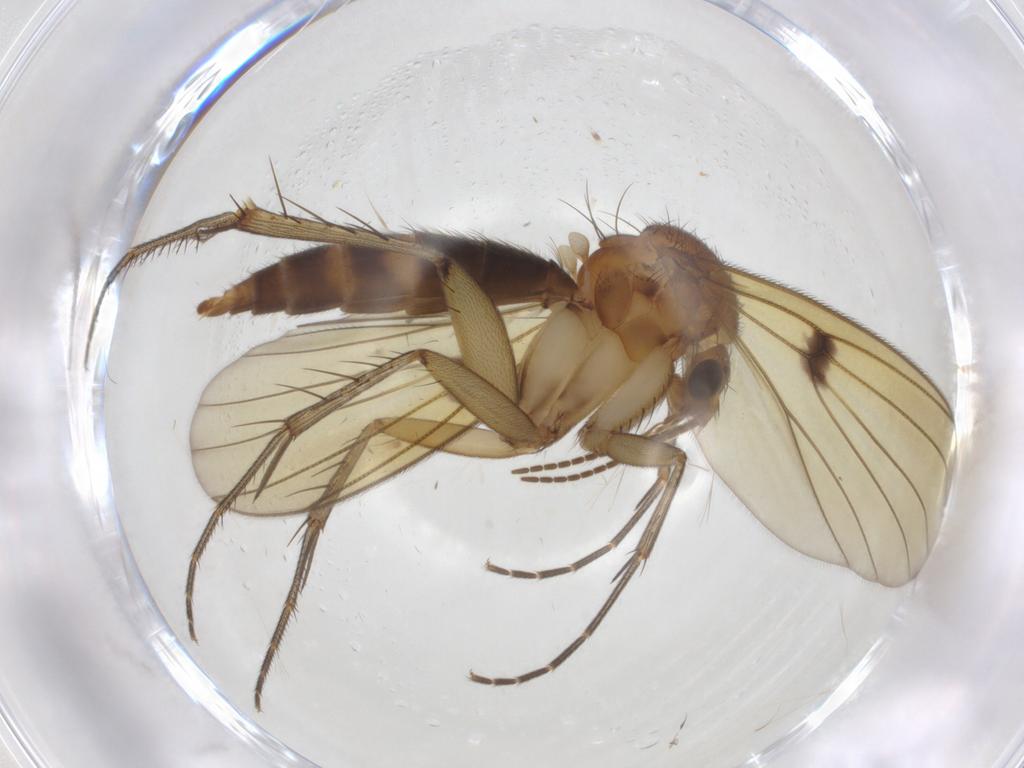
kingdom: Animalia
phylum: Arthropoda
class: Insecta
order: Diptera
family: Mycetophilidae
